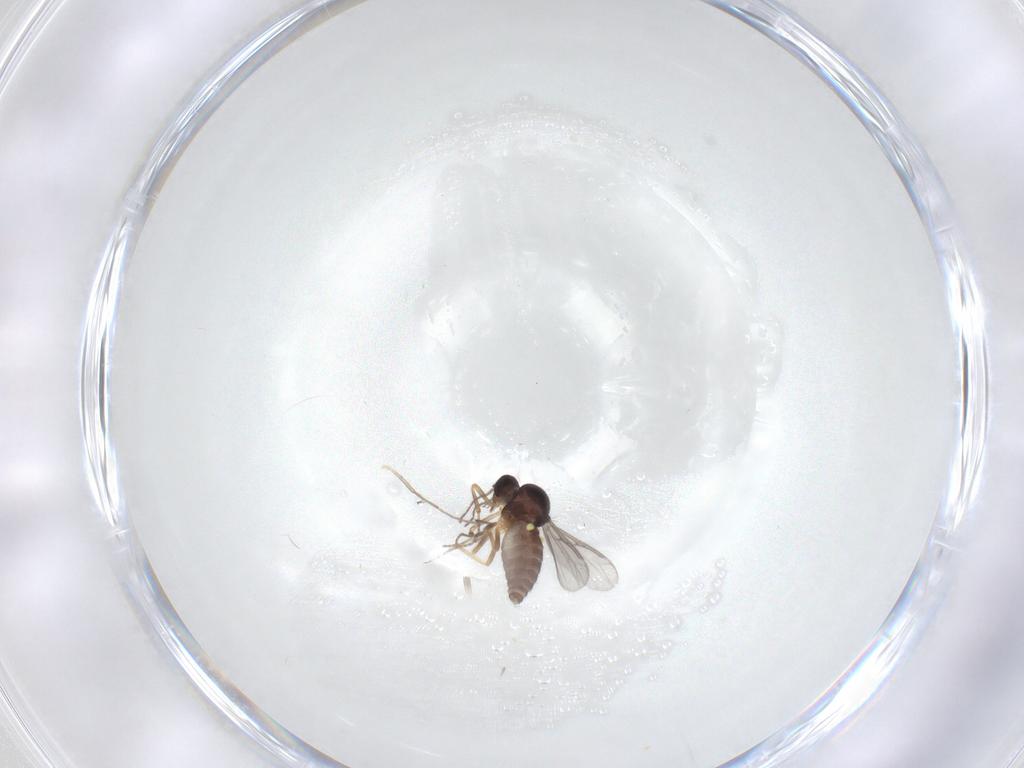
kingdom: Animalia
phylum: Arthropoda
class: Insecta
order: Diptera
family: Ceratopogonidae
